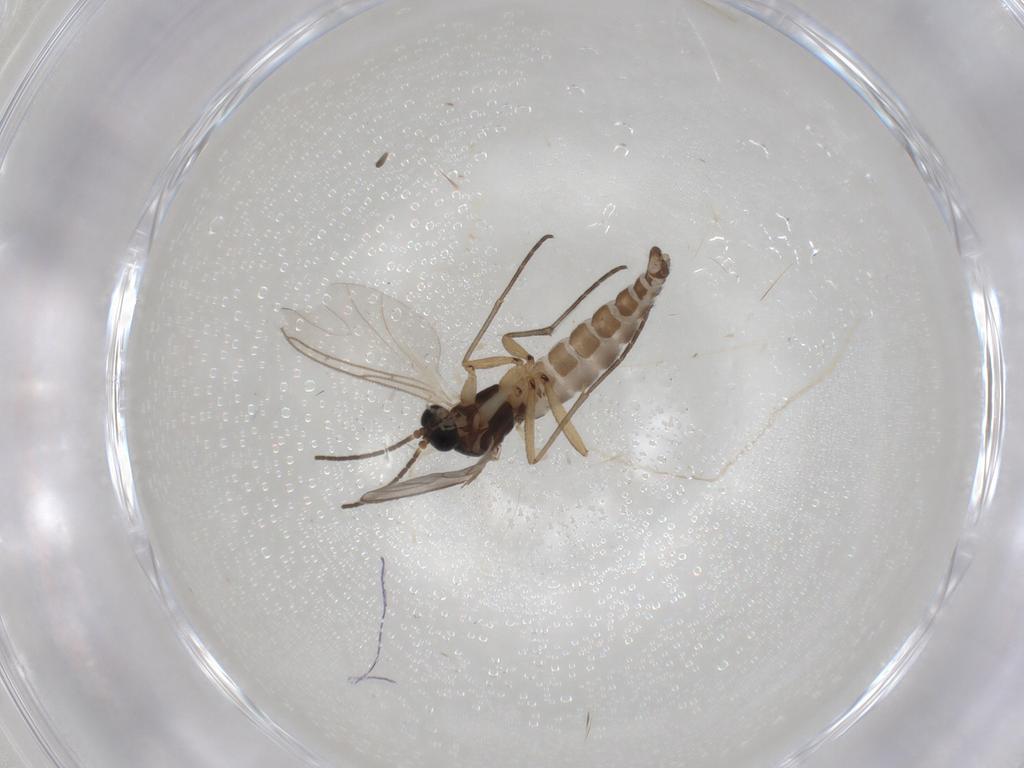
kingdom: Animalia
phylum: Arthropoda
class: Insecta
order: Diptera
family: Sciaridae
